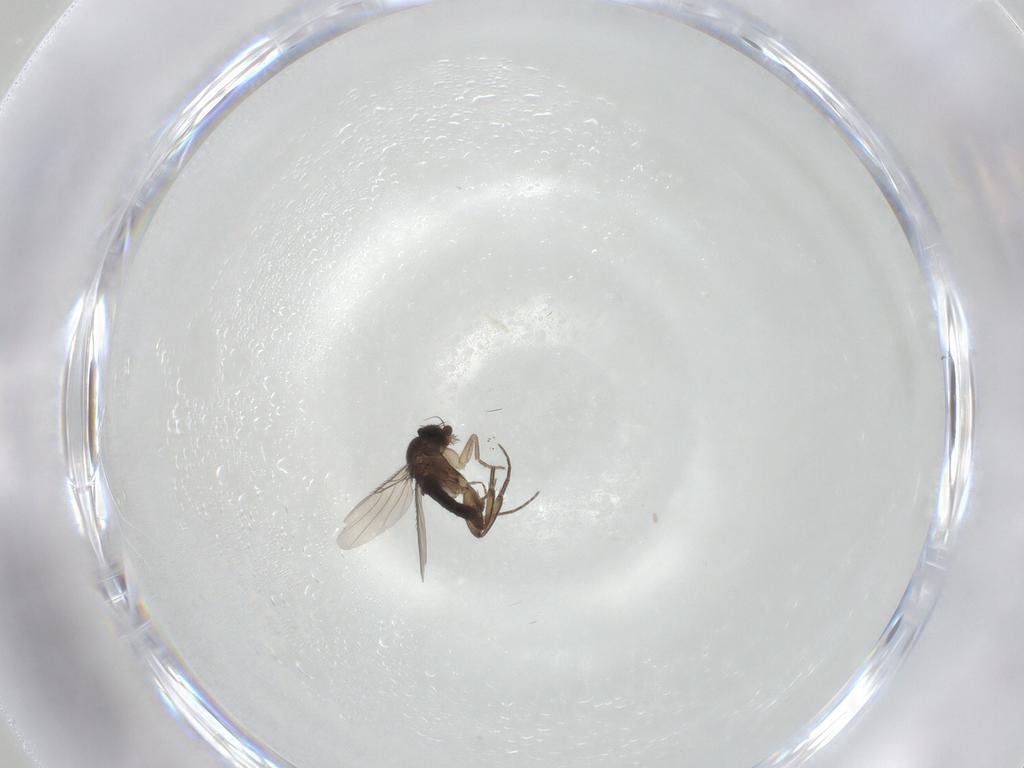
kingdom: Animalia
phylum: Arthropoda
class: Insecta
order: Diptera
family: Phoridae
